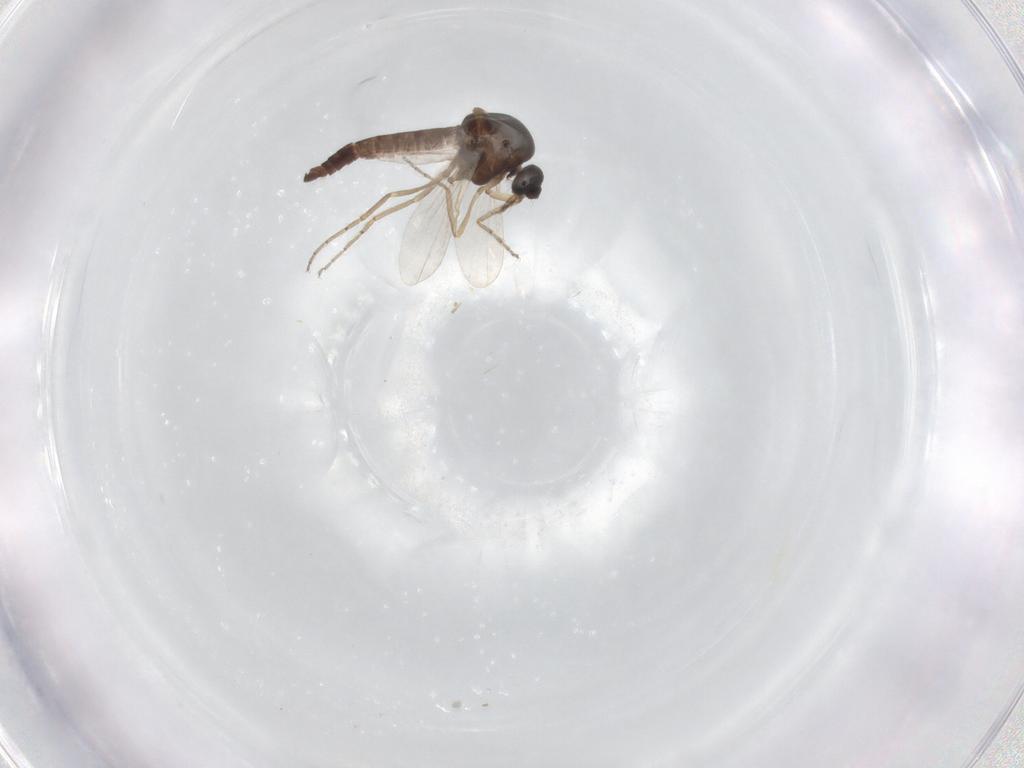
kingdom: Animalia
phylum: Arthropoda
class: Insecta
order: Diptera
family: Ceratopogonidae
